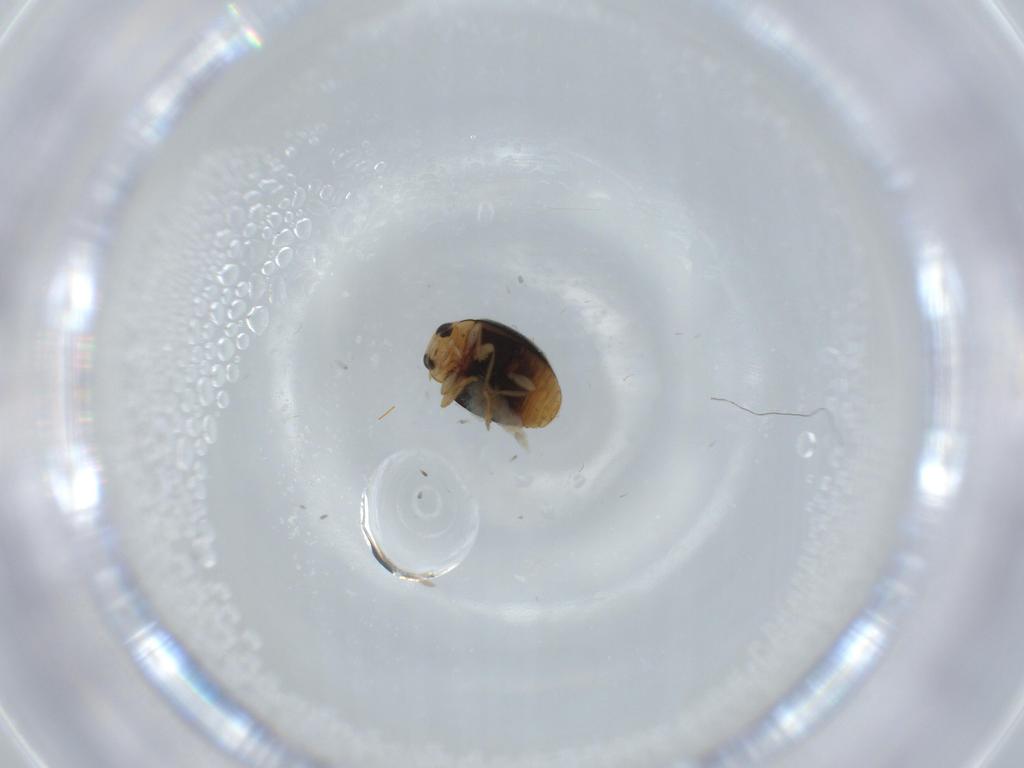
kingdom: Animalia
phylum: Arthropoda
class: Insecta
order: Coleoptera
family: Coccinellidae
